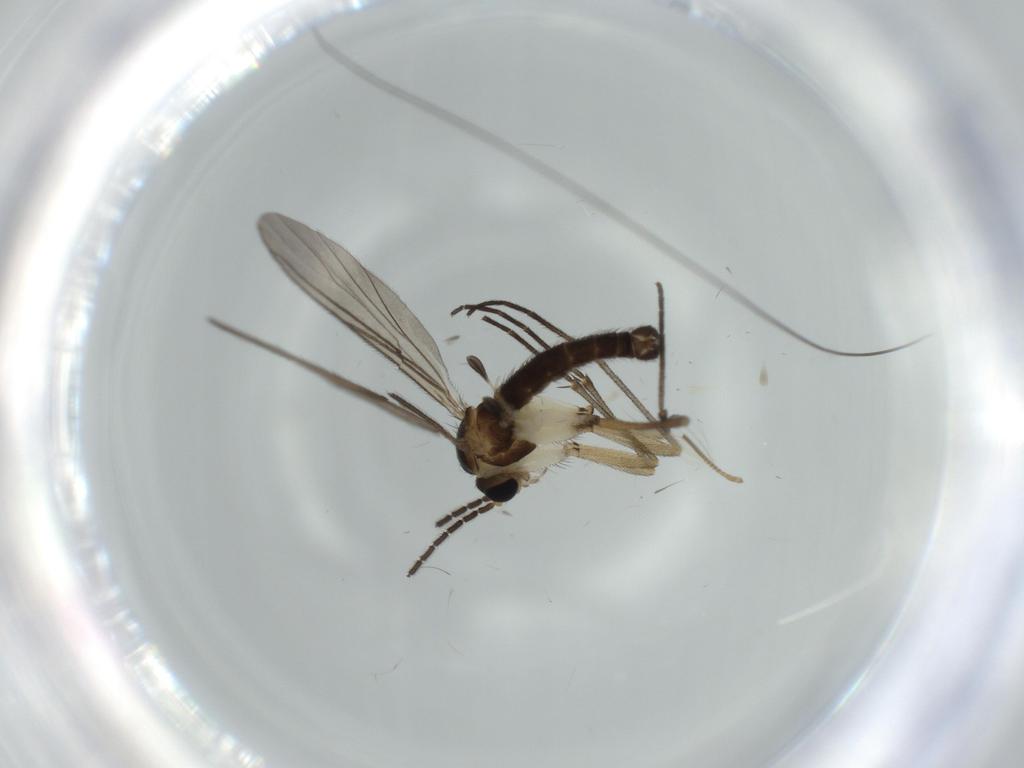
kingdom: Animalia
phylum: Arthropoda
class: Insecta
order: Diptera
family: Sciaridae
